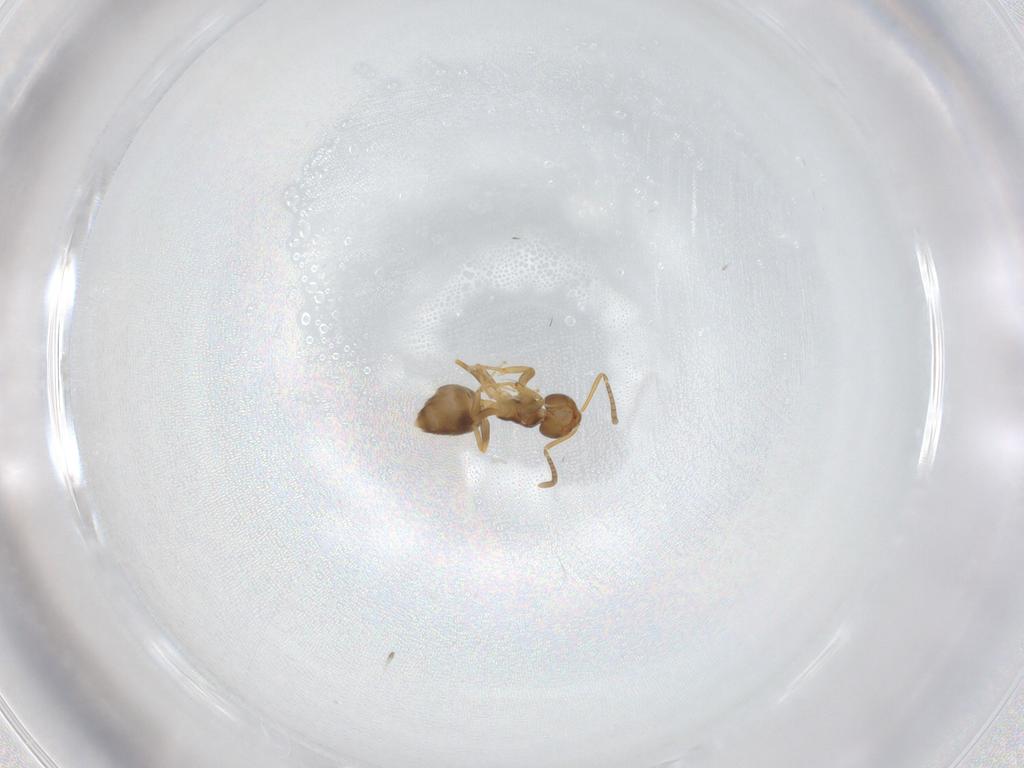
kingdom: Animalia
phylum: Arthropoda
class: Insecta
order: Hymenoptera
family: Formicidae
